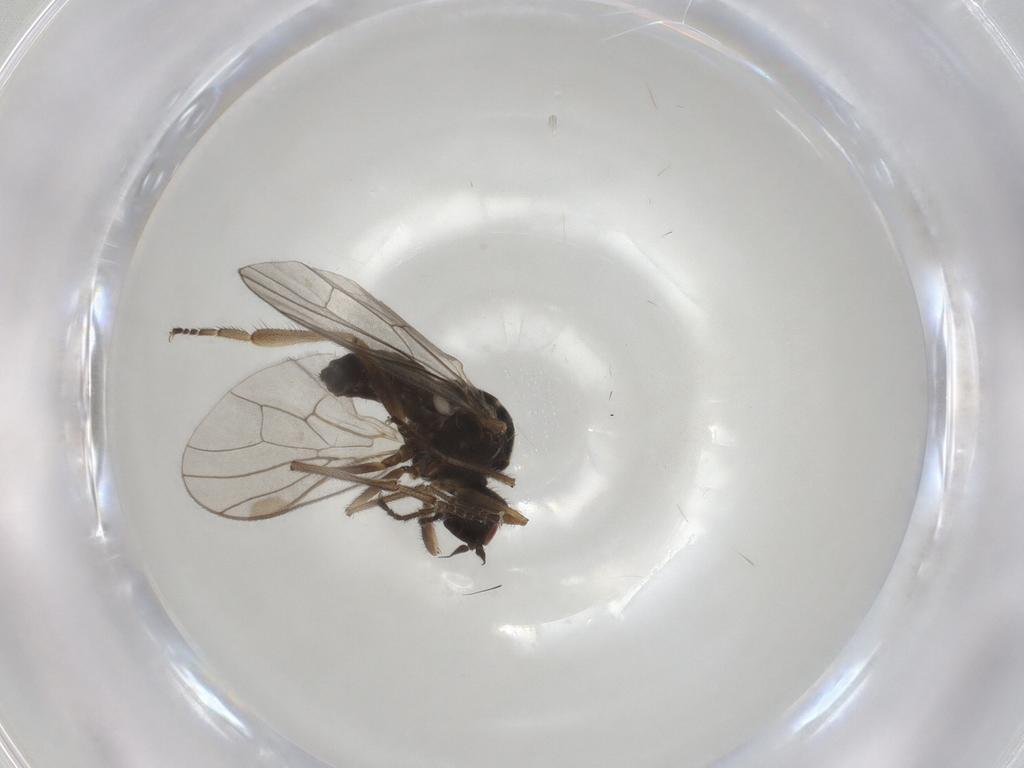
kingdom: Animalia
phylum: Arthropoda
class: Insecta
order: Diptera
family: Hybotidae
